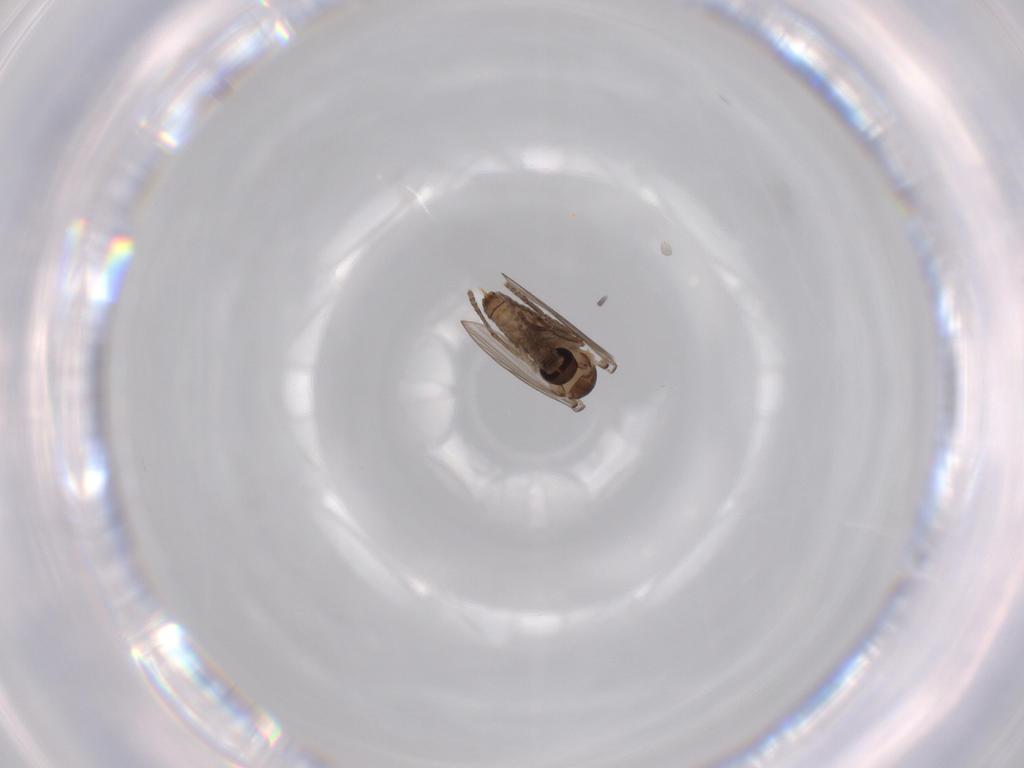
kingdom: Animalia
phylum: Arthropoda
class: Insecta
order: Diptera
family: Psychodidae
